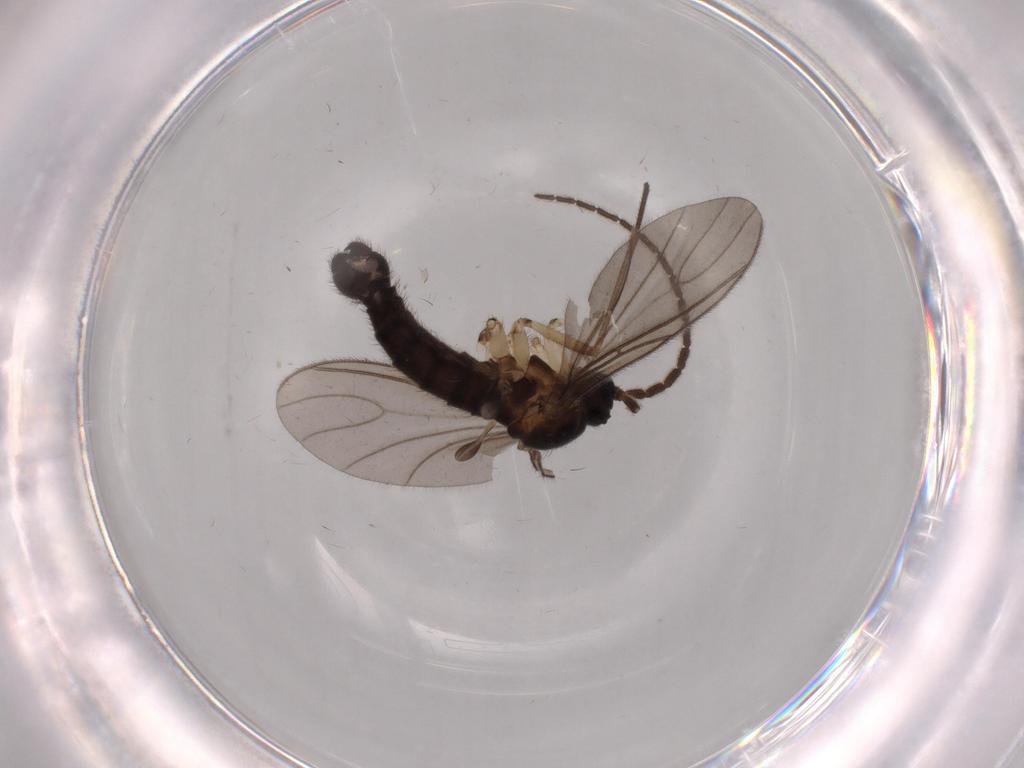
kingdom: Animalia
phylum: Arthropoda
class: Insecta
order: Diptera
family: Sciaridae
